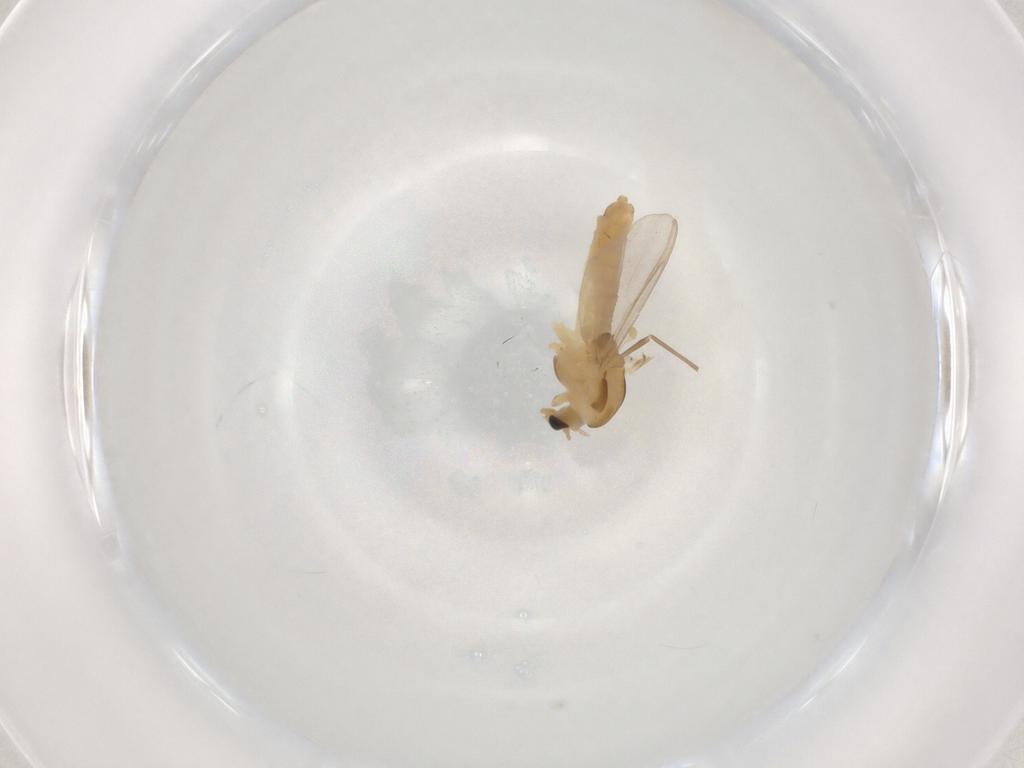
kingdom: Animalia
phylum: Arthropoda
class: Insecta
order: Diptera
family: Chironomidae
